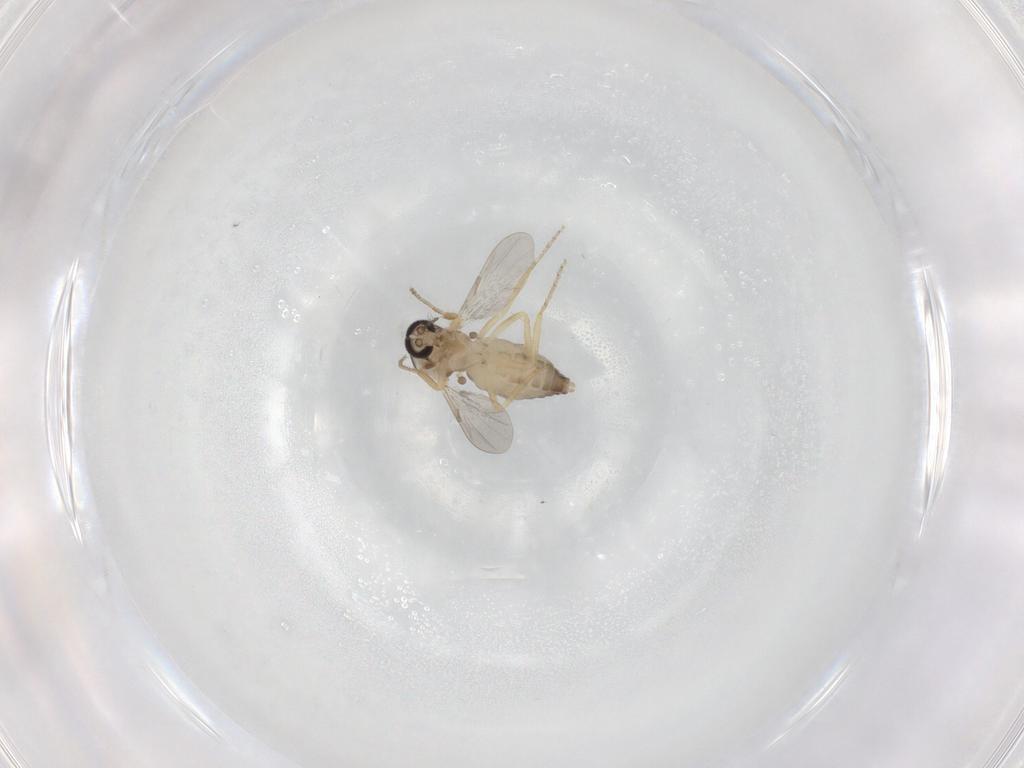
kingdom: Animalia
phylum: Arthropoda
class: Insecta
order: Diptera
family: Ceratopogonidae
